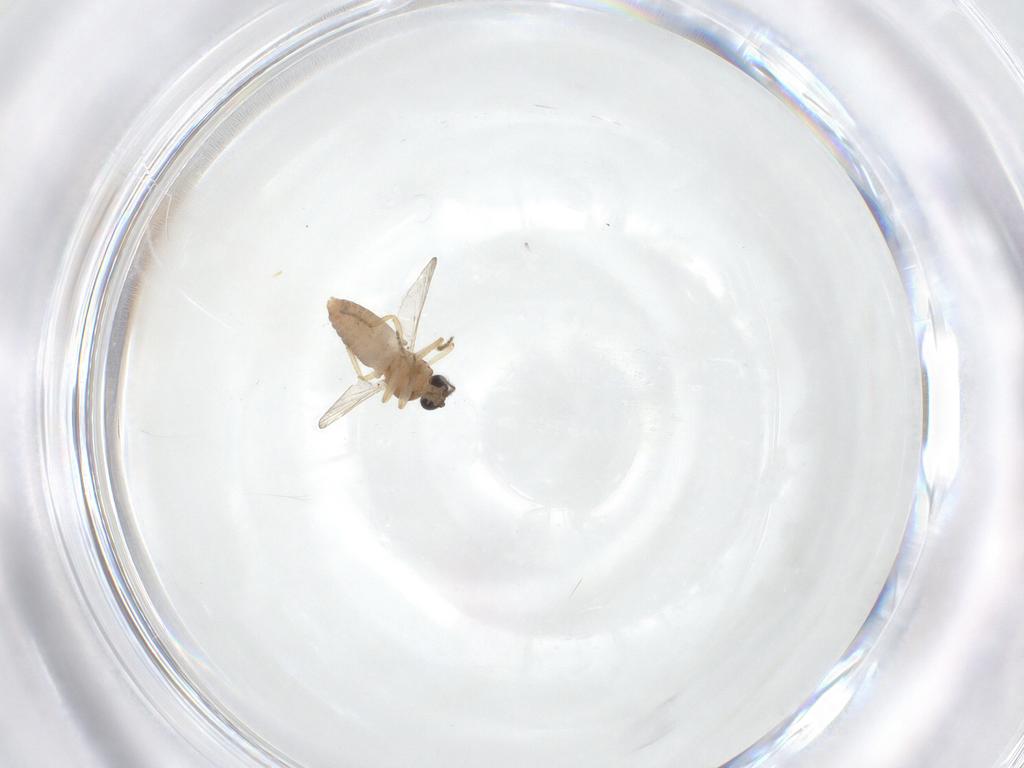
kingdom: Animalia
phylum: Arthropoda
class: Insecta
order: Diptera
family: Ceratopogonidae
